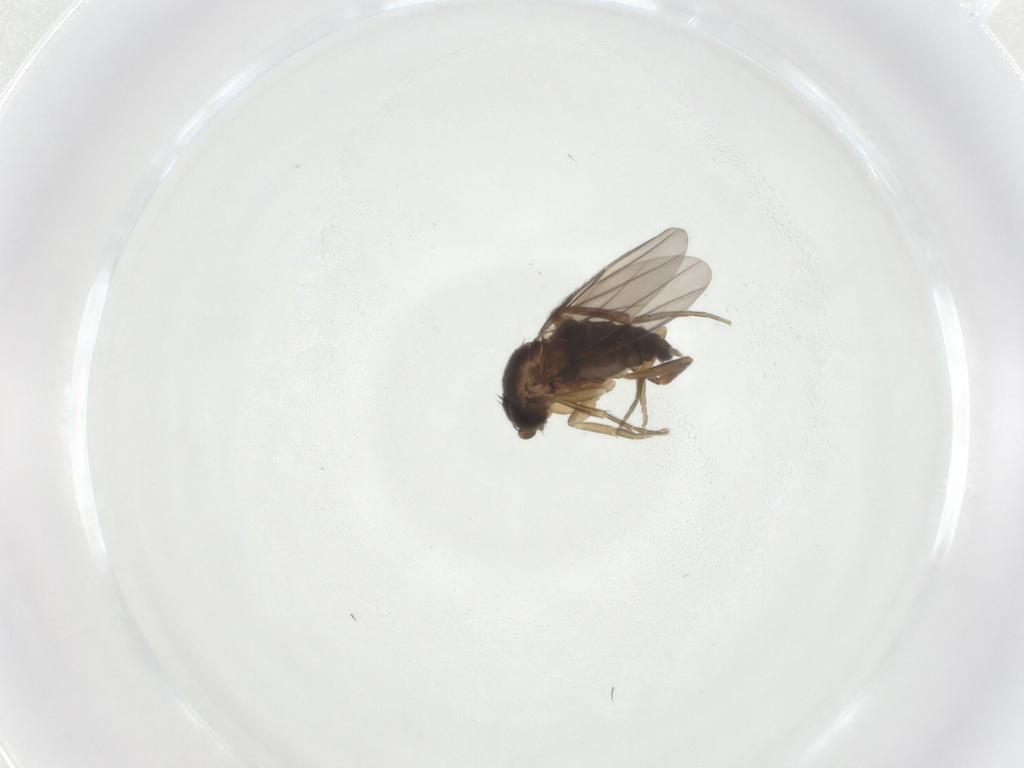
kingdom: Animalia
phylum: Arthropoda
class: Insecta
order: Diptera
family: Phoridae
